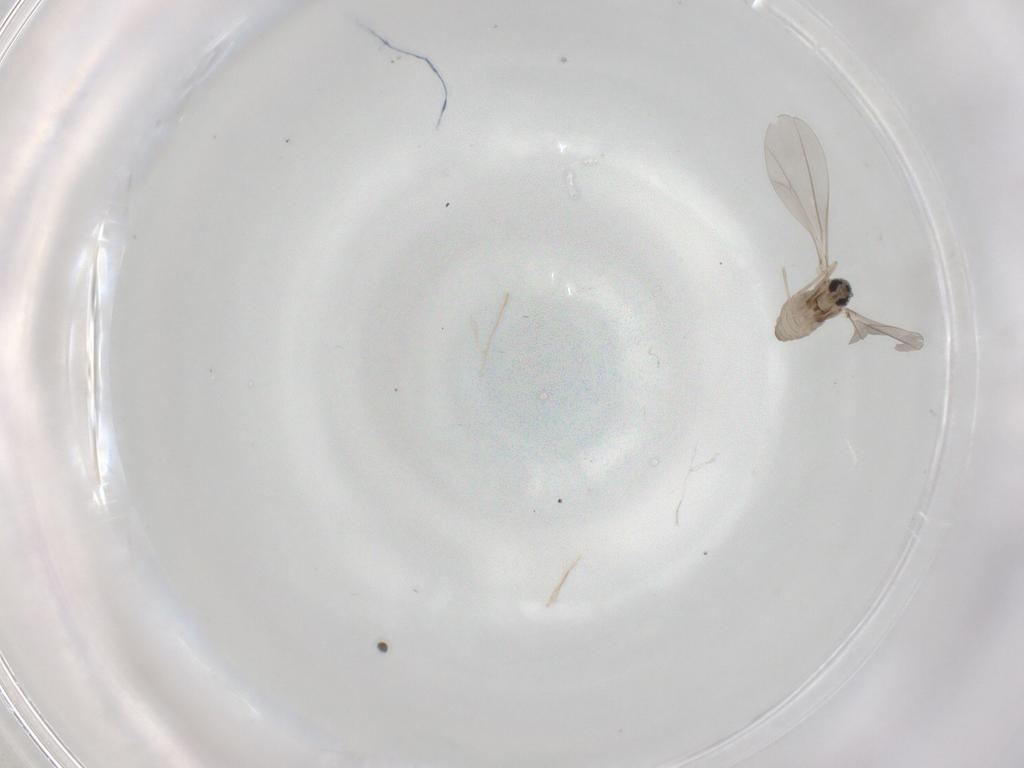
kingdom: Animalia
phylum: Arthropoda
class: Insecta
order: Diptera
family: Cecidomyiidae
